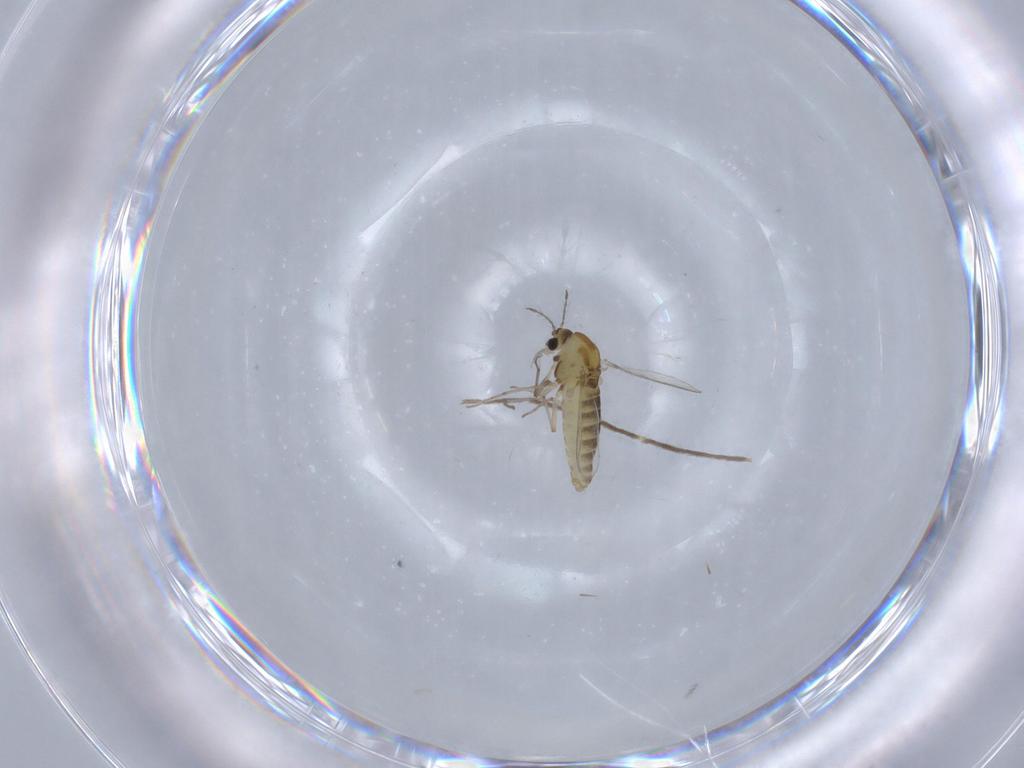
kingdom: Animalia
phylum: Arthropoda
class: Insecta
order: Diptera
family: Chironomidae
